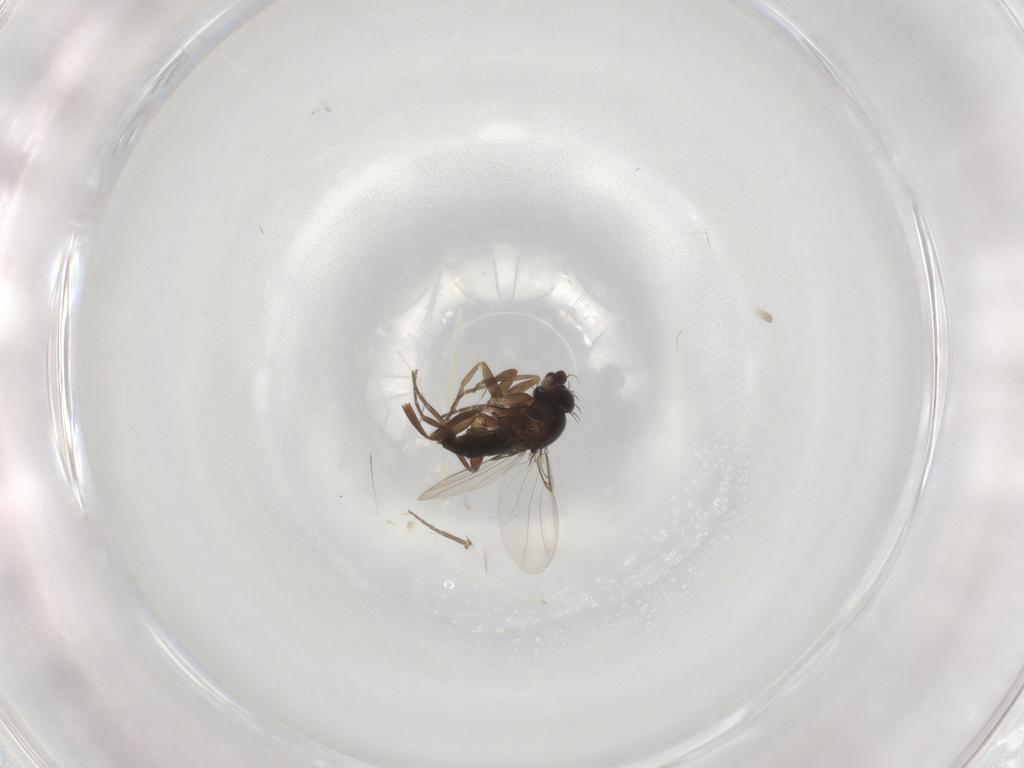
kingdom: Animalia
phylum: Arthropoda
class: Insecta
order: Diptera
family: Phoridae
